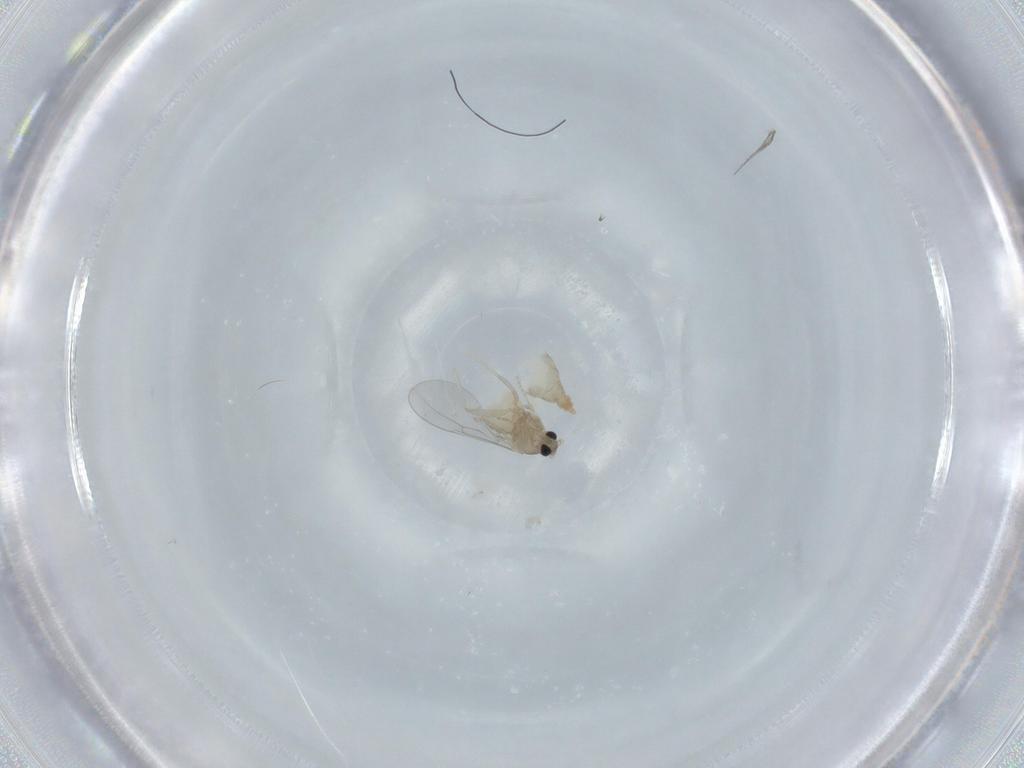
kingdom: Animalia
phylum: Arthropoda
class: Insecta
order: Diptera
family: Cecidomyiidae
